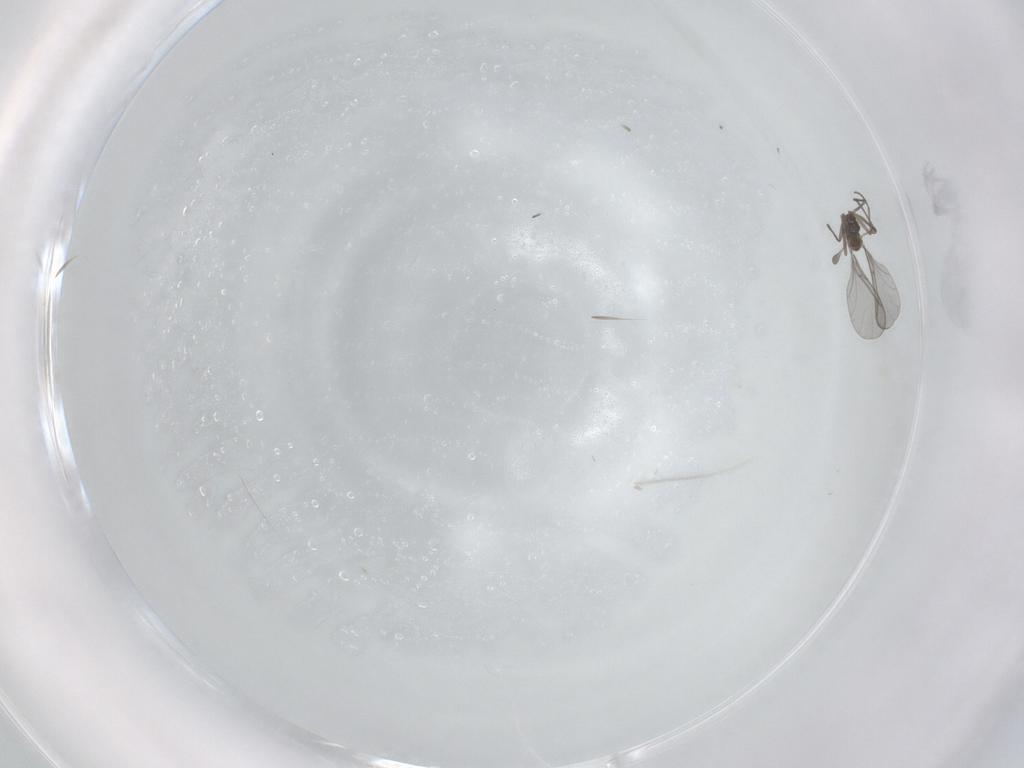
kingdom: Animalia
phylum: Arthropoda
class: Insecta
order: Diptera
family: Sciaridae
